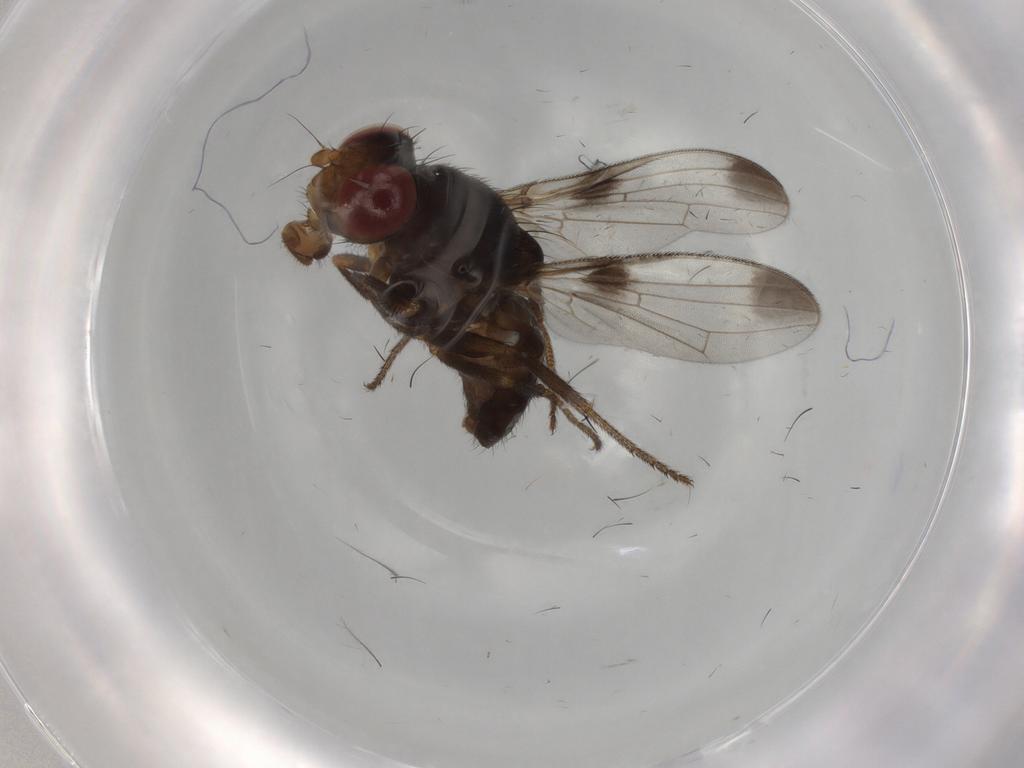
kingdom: Animalia
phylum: Arthropoda
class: Insecta
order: Diptera
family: Ulidiidae
